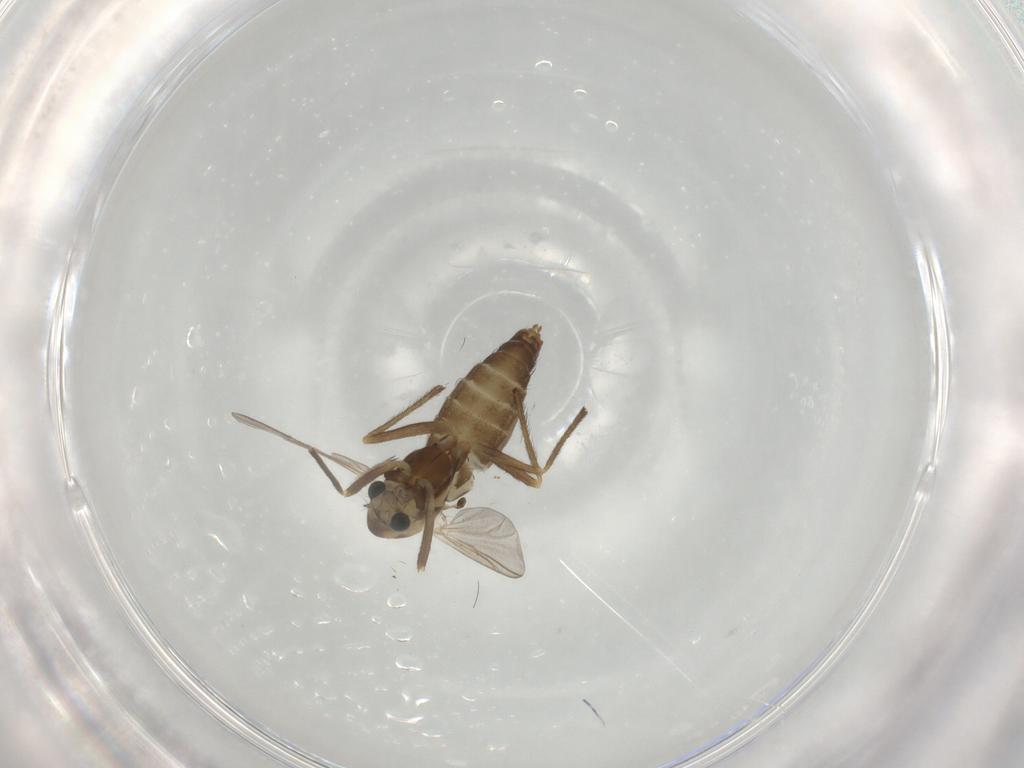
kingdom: Animalia
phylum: Arthropoda
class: Insecta
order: Diptera
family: Chironomidae
